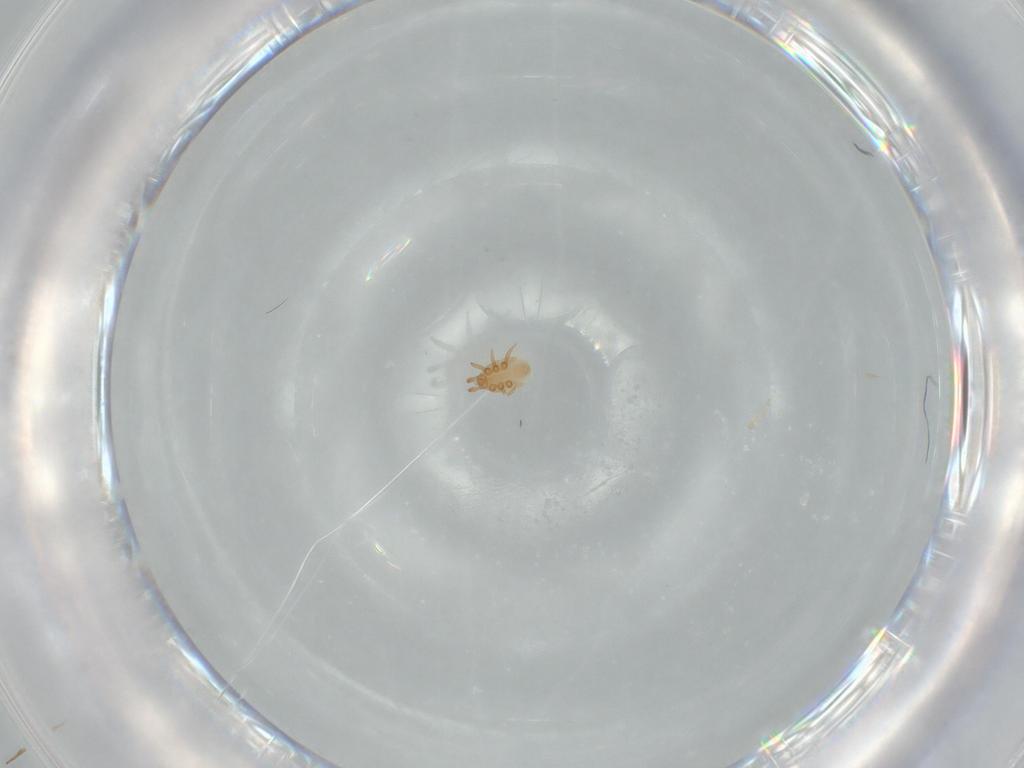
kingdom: Animalia
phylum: Arthropoda
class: Arachnida
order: Mesostigmata
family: Dinychidae
